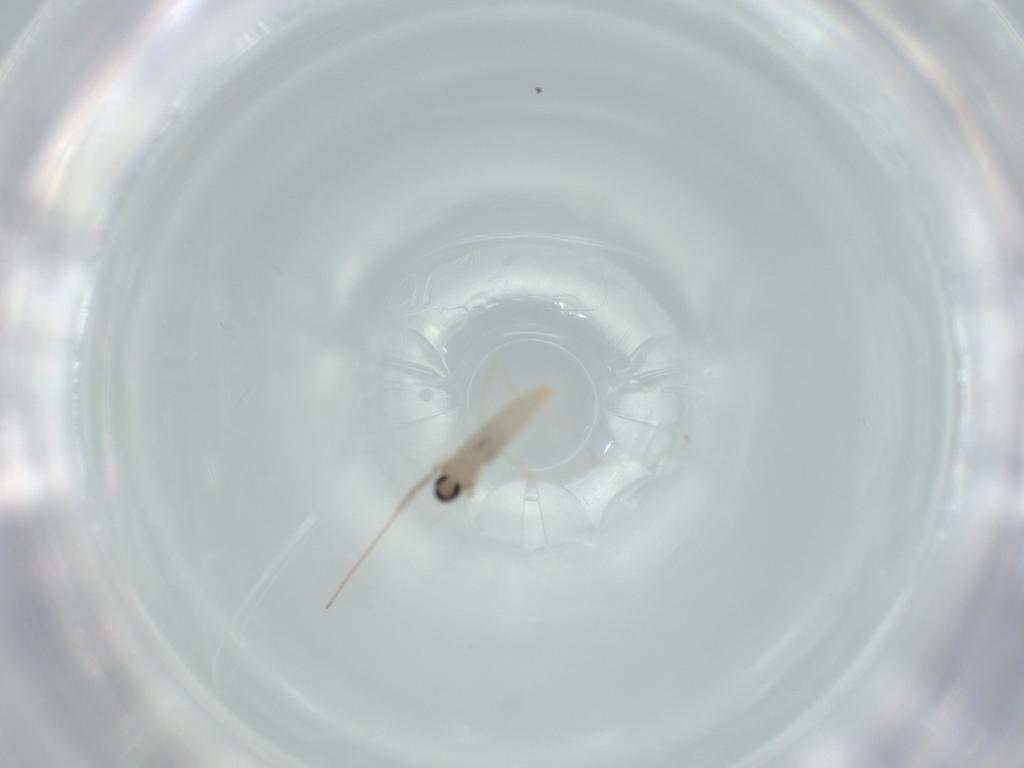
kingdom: Animalia
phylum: Arthropoda
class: Insecta
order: Diptera
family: Cecidomyiidae
